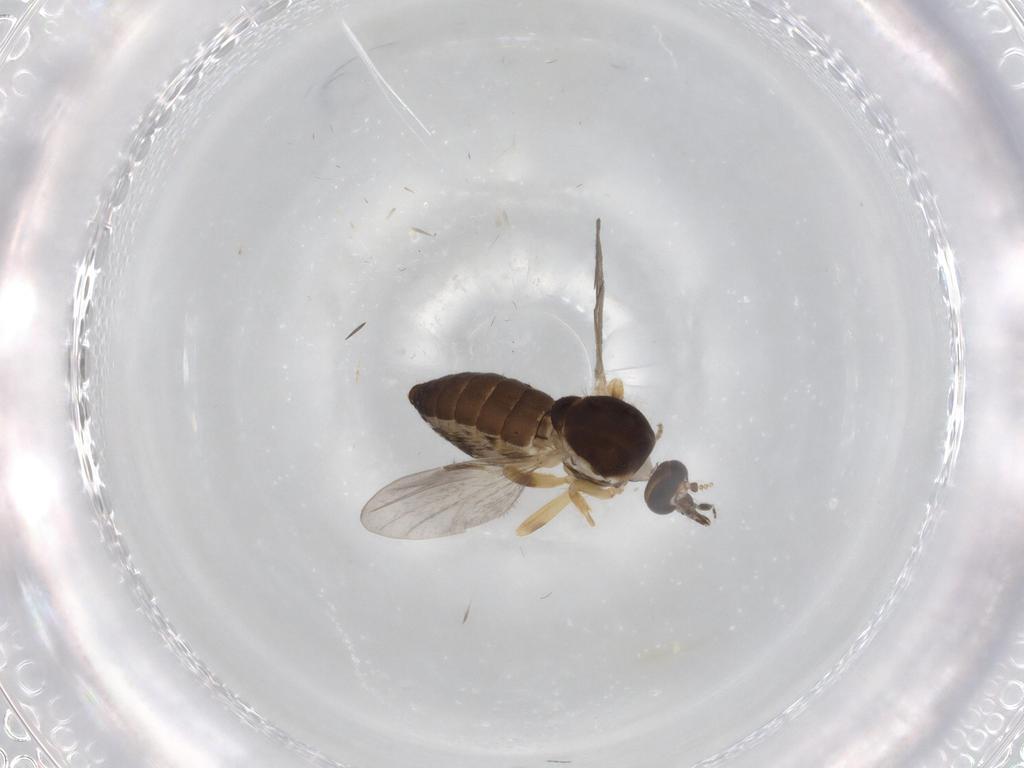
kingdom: Animalia
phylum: Arthropoda
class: Insecta
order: Diptera
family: Ceratopogonidae
